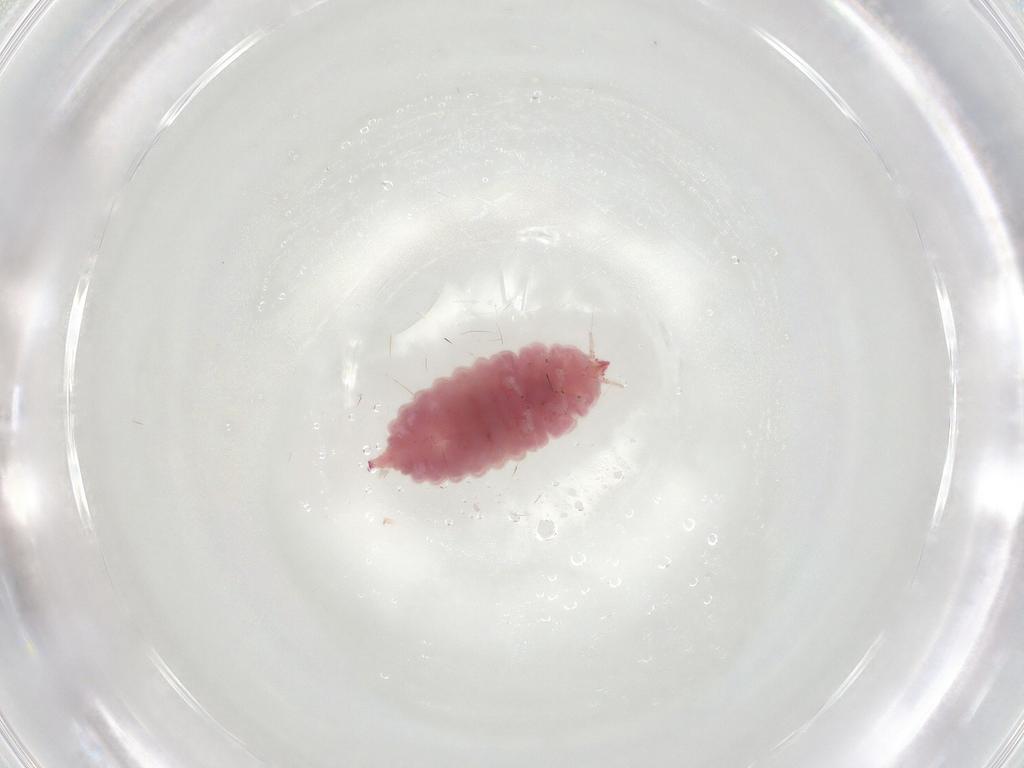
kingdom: Animalia
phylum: Arthropoda
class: Insecta
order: Neuroptera
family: Coniopterygidae
